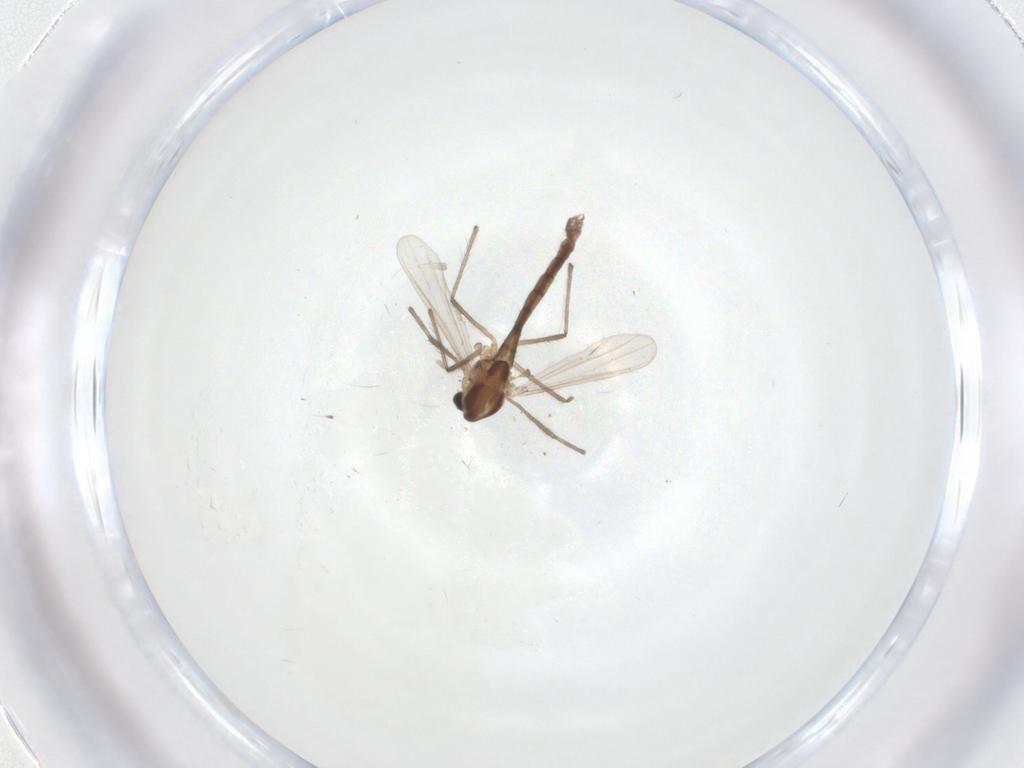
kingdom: Animalia
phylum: Arthropoda
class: Insecta
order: Diptera
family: Chironomidae
